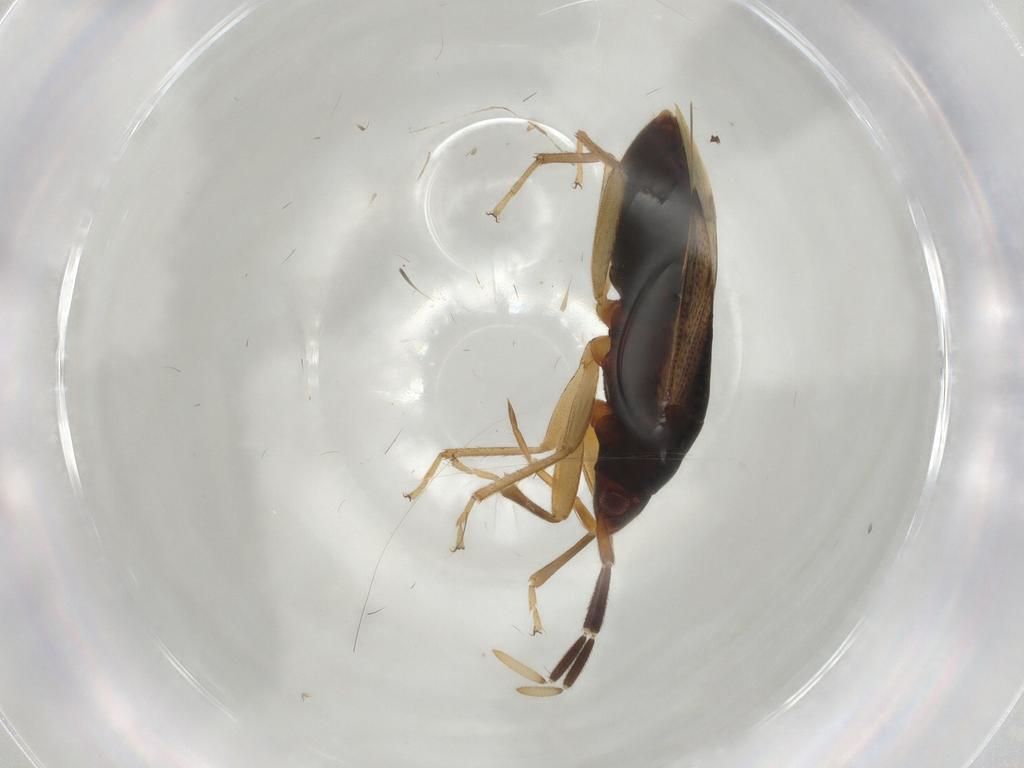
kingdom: Animalia
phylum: Arthropoda
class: Insecta
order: Hemiptera
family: Rhyparochromidae
